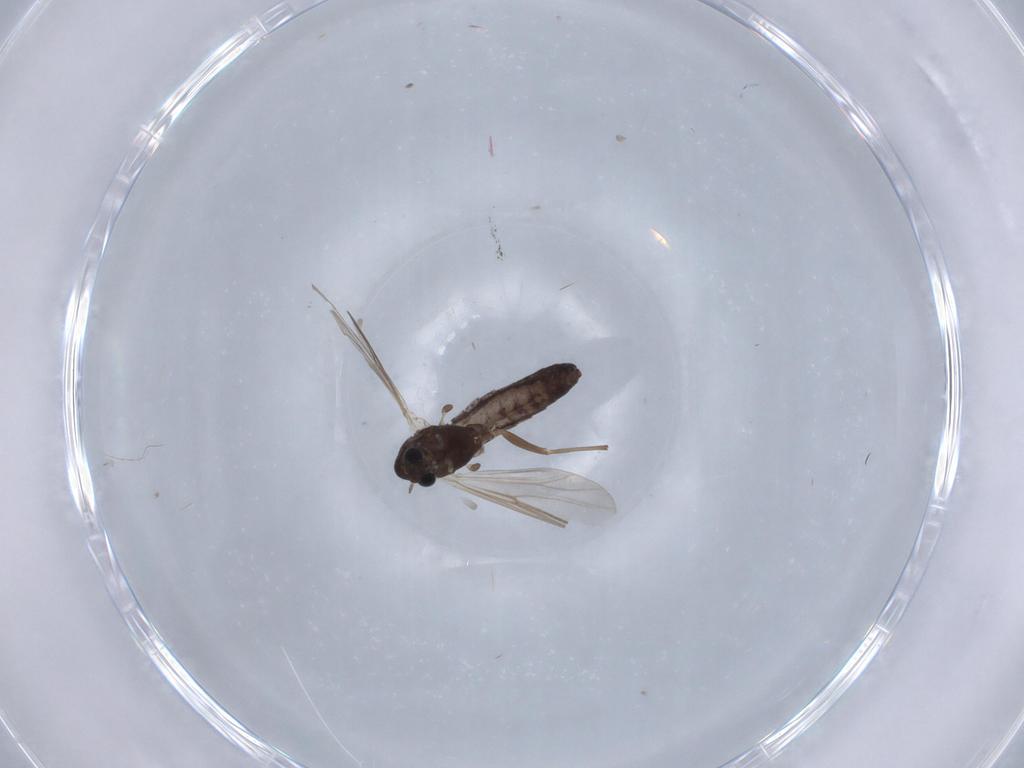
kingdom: Animalia
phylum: Arthropoda
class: Insecta
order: Diptera
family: Chironomidae
